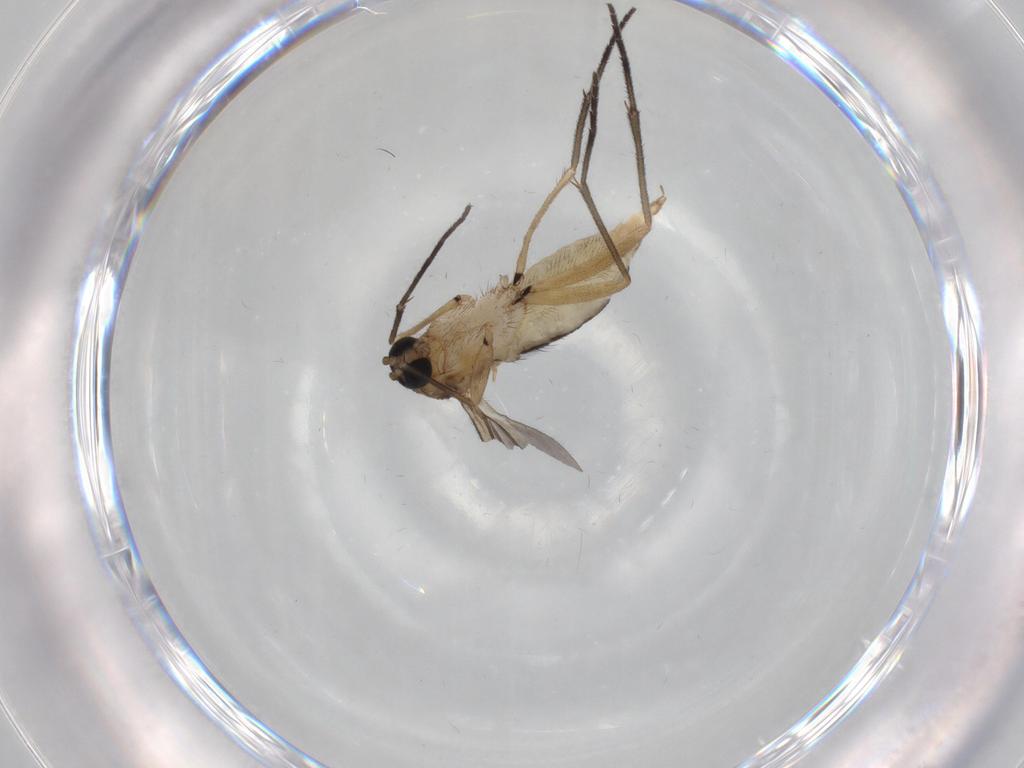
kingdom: Animalia
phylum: Arthropoda
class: Insecta
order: Diptera
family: Sciaridae
